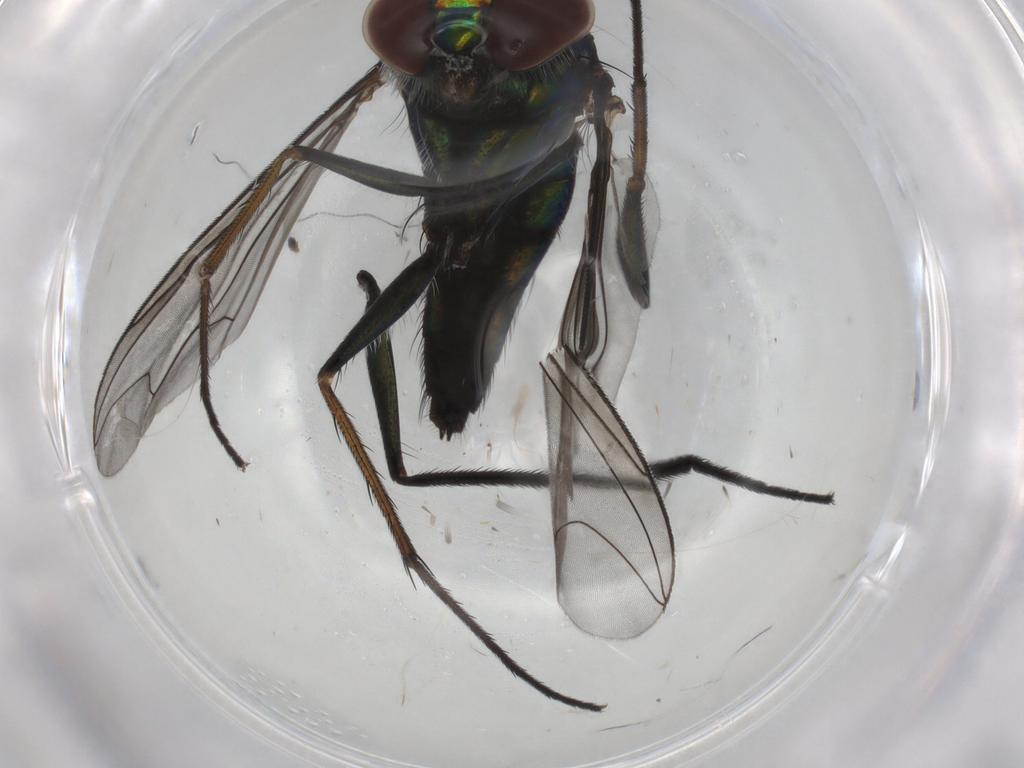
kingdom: Animalia
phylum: Arthropoda
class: Insecta
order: Diptera
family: Dolichopodidae
